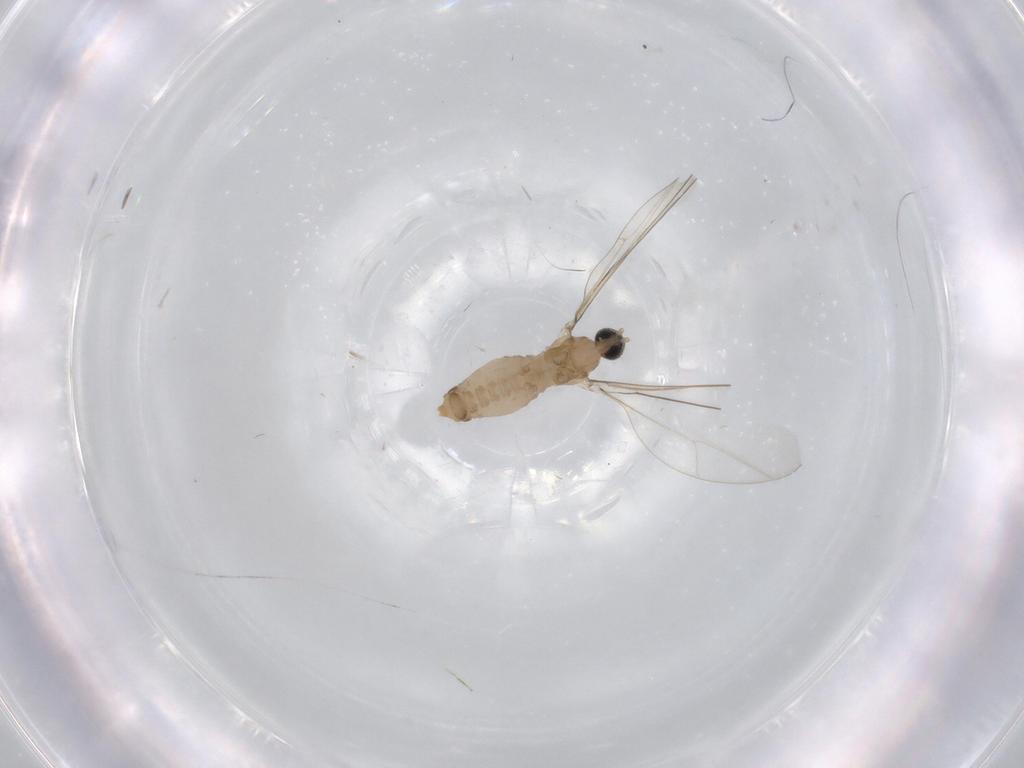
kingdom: Animalia
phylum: Arthropoda
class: Insecta
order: Diptera
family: Cecidomyiidae
